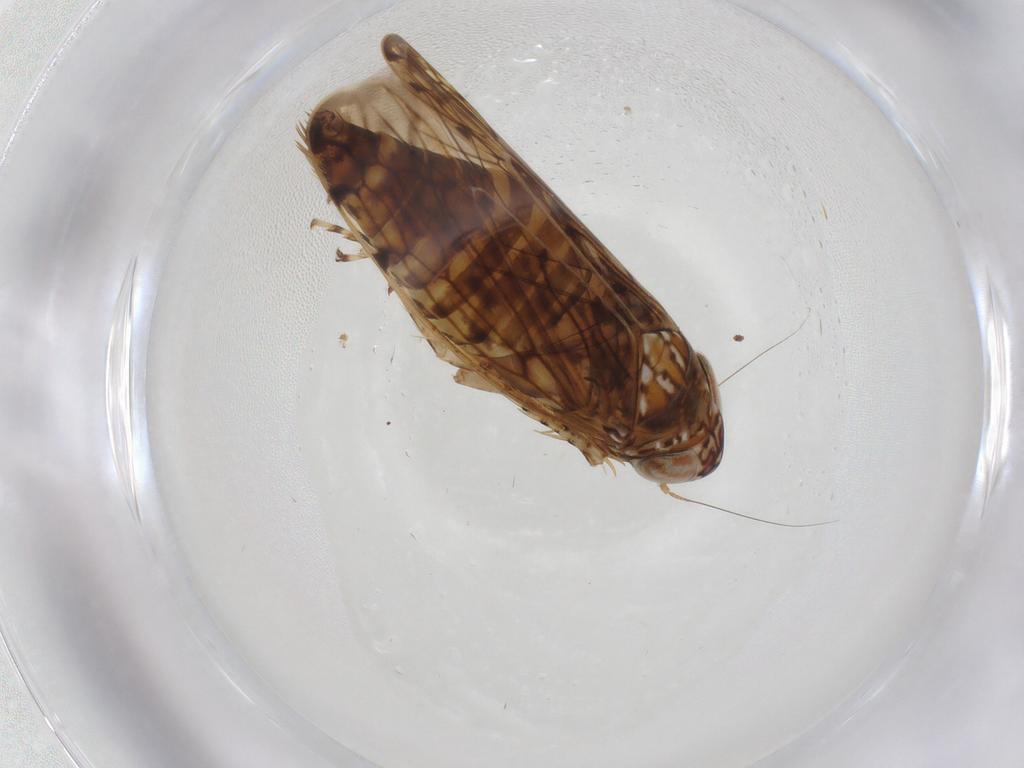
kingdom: Animalia
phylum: Arthropoda
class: Insecta
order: Hemiptera
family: Cicadellidae
